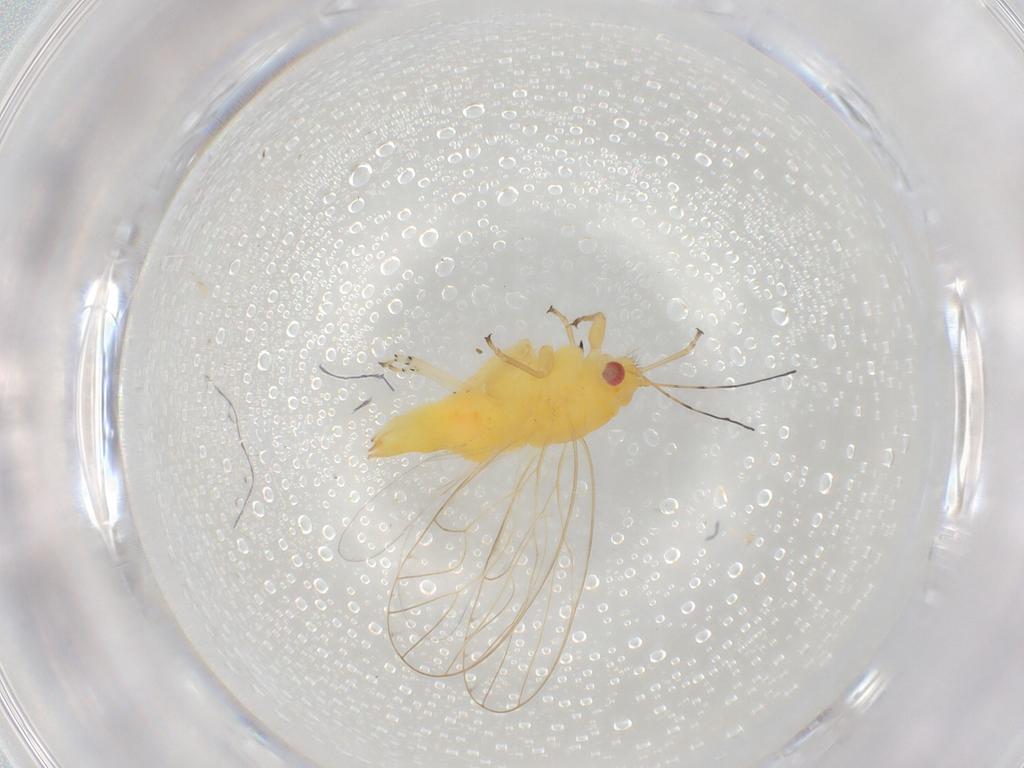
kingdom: Animalia
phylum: Arthropoda
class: Insecta
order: Hemiptera
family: Psyllidae
